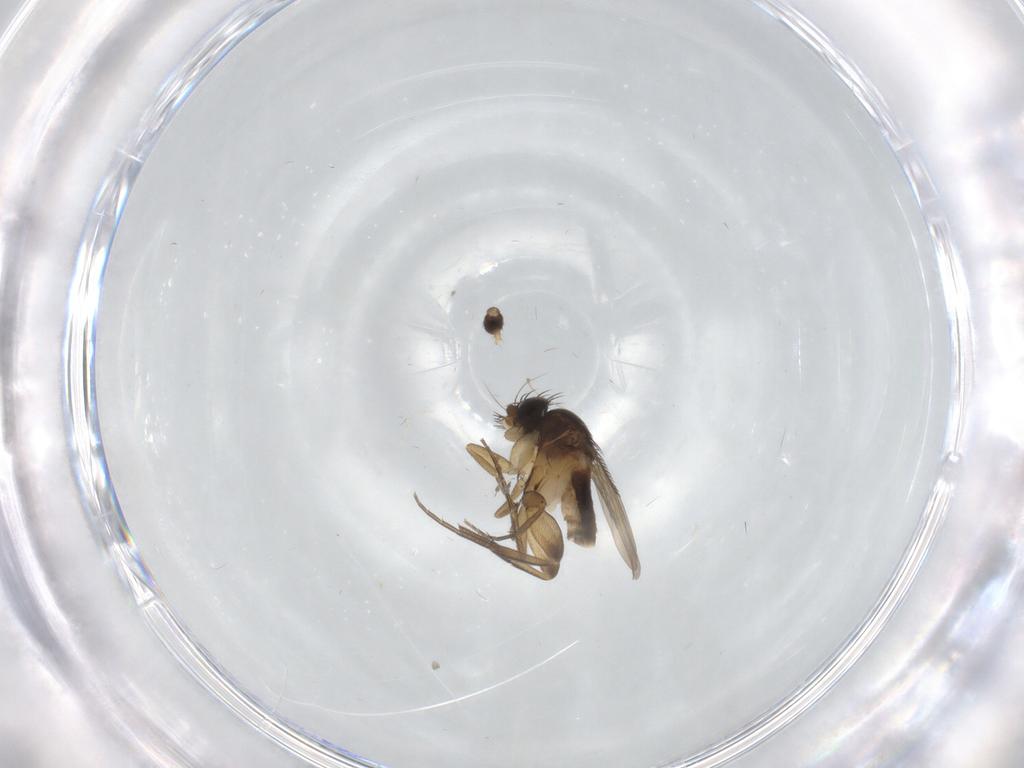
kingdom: Animalia
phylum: Arthropoda
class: Insecta
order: Diptera
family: Phoridae
